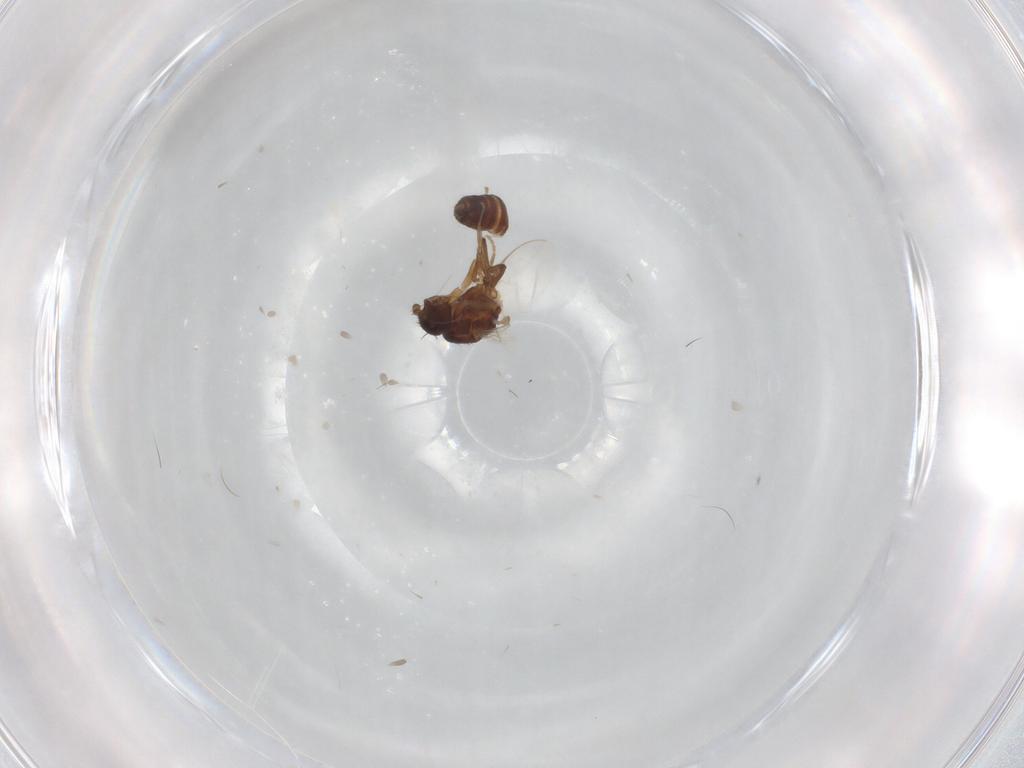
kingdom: Animalia
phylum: Arthropoda
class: Insecta
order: Diptera
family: Sphaeroceridae
